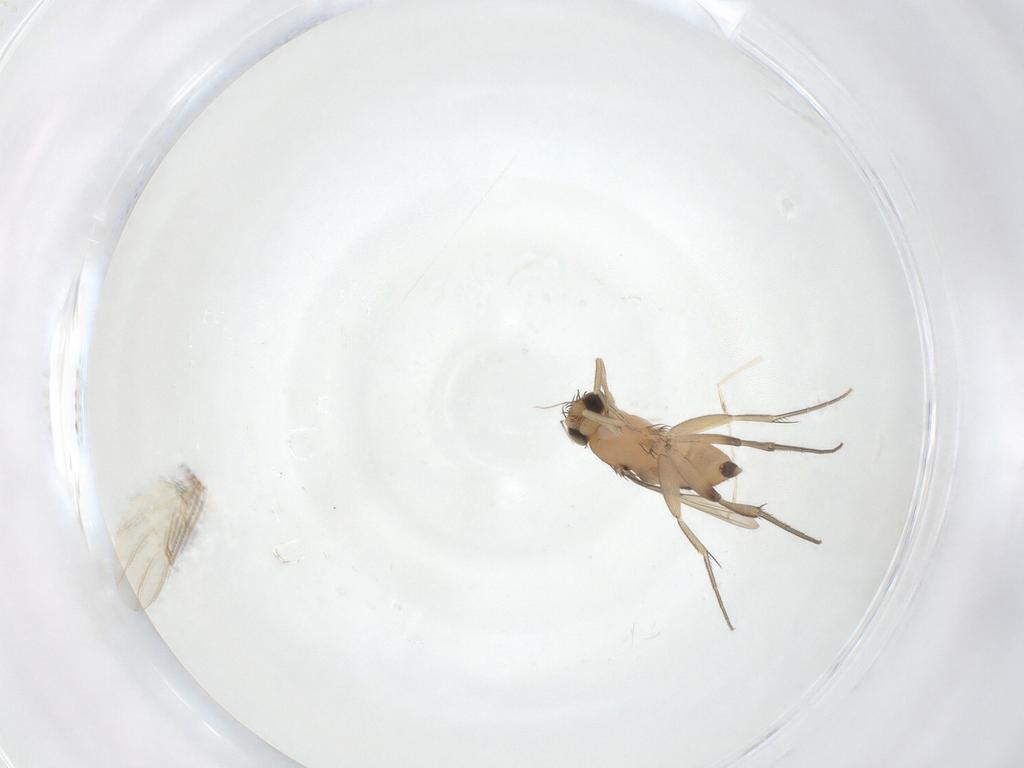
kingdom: Animalia
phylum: Arthropoda
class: Insecta
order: Diptera
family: Phoridae
